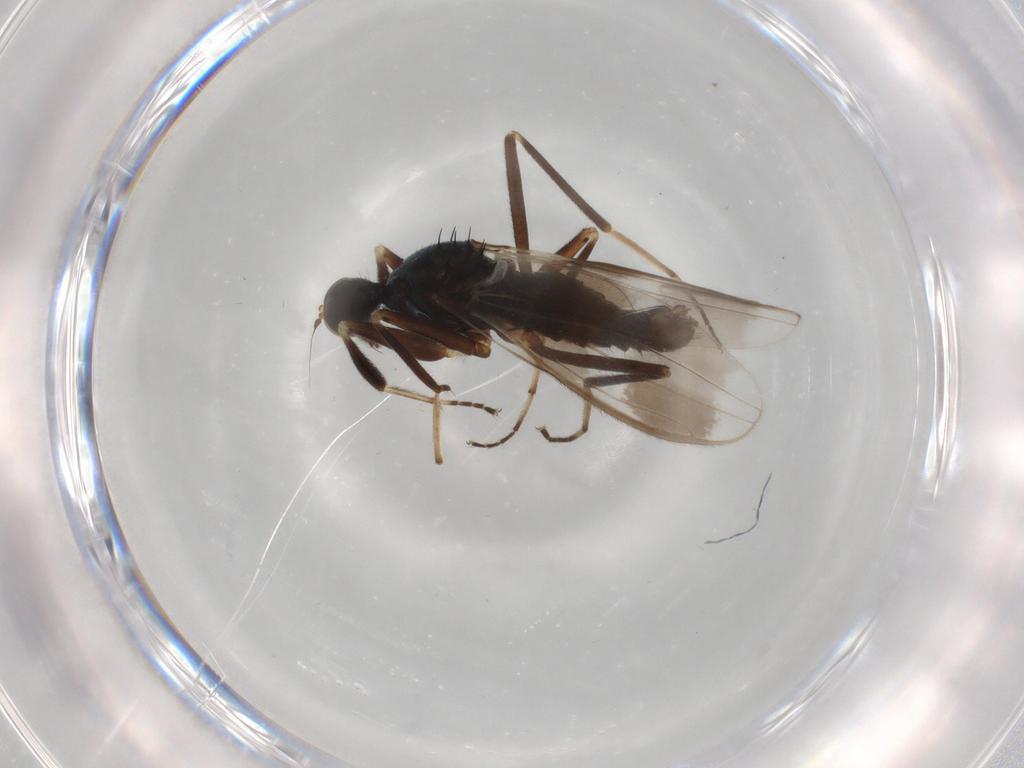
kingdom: Animalia
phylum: Arthropoda
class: Insecta
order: Diptera
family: Hybotidae
